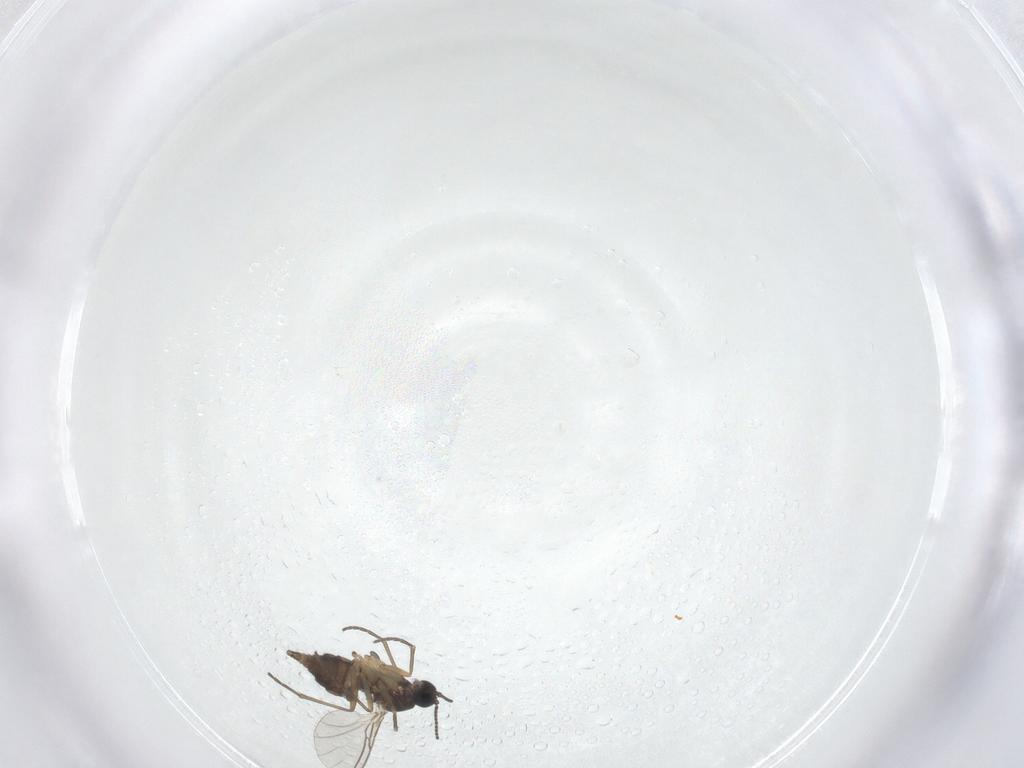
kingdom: Animalia
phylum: Arthropoda
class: Insecta
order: Diptera
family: Sciaridae
